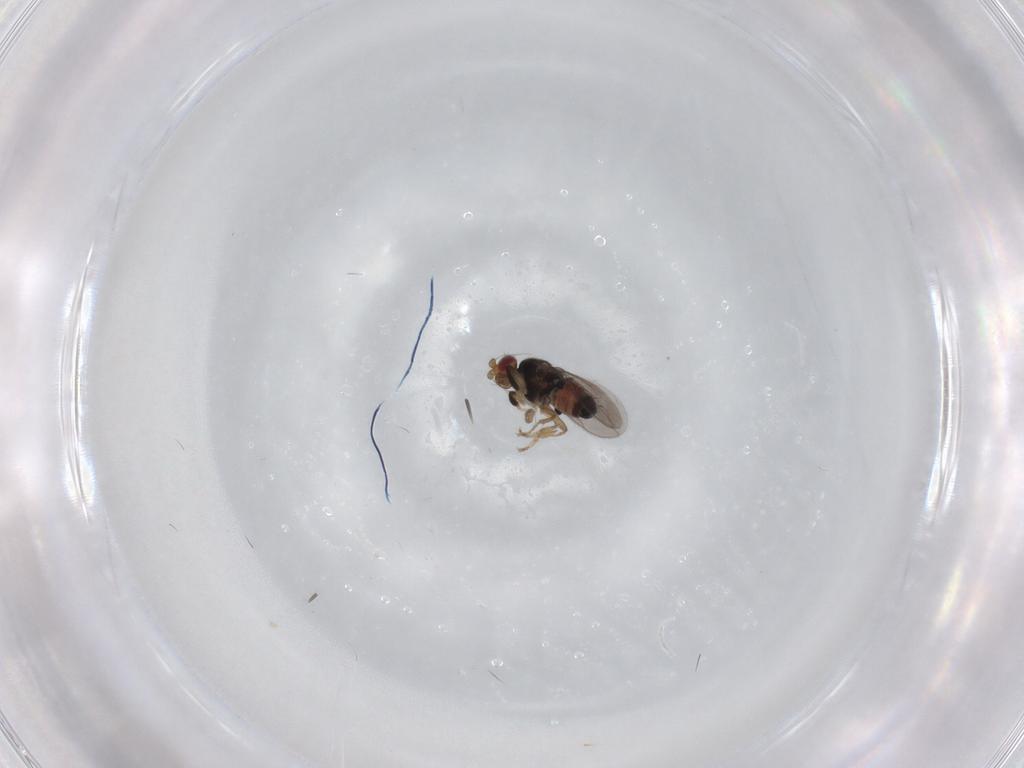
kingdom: Animalia
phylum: Arthropoda
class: Insecta
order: Diptera
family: Sphaeroceridae
